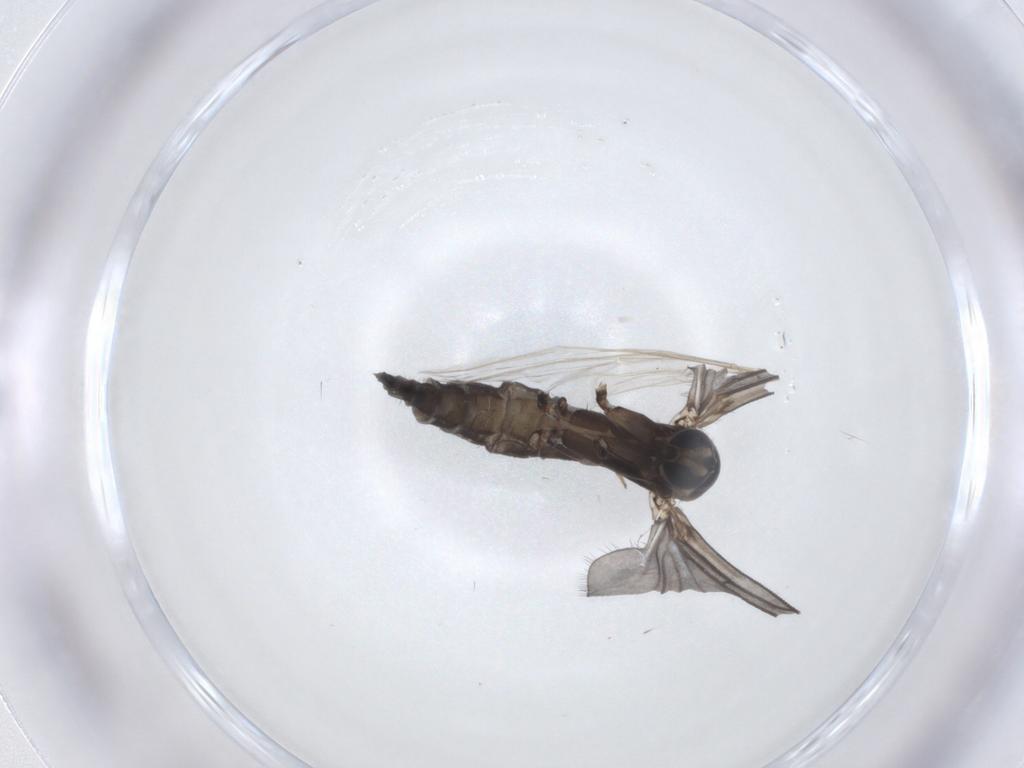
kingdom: Animalia
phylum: Arthropoda
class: Insecta
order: Diptera
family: Sciaridae
